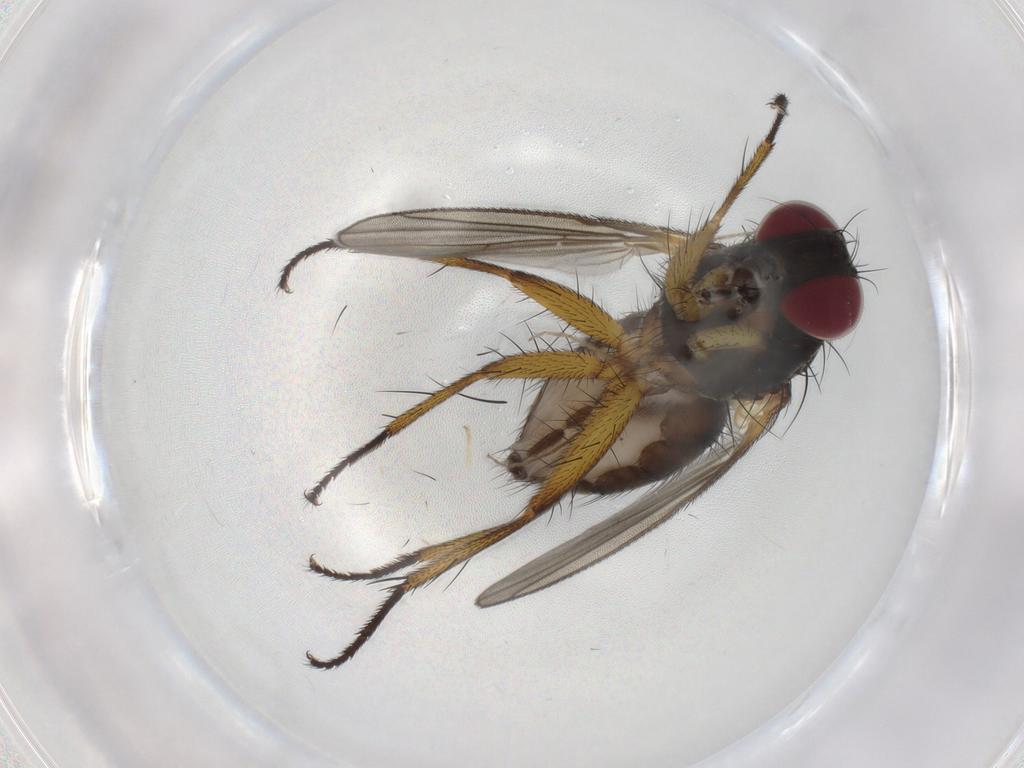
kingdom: Animalia
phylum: Arthropoda
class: Insecta
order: Diptera
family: Muscidae
